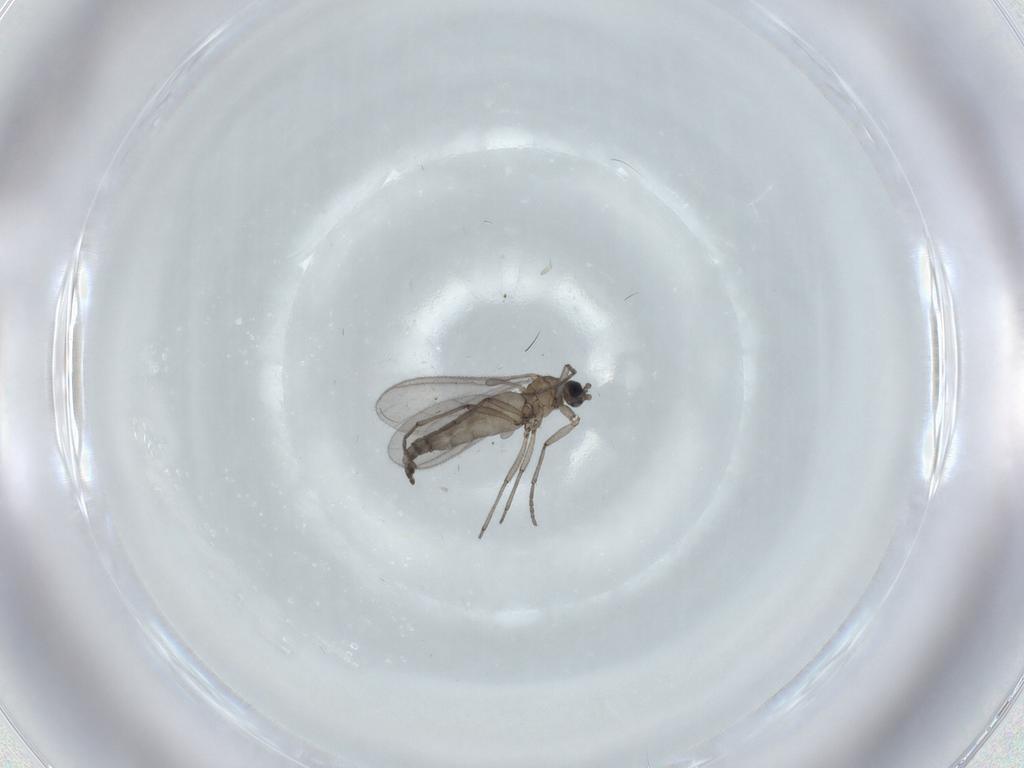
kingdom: Animalia
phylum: Arthropoda
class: Insecta
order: Diptera
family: Sciaridae
